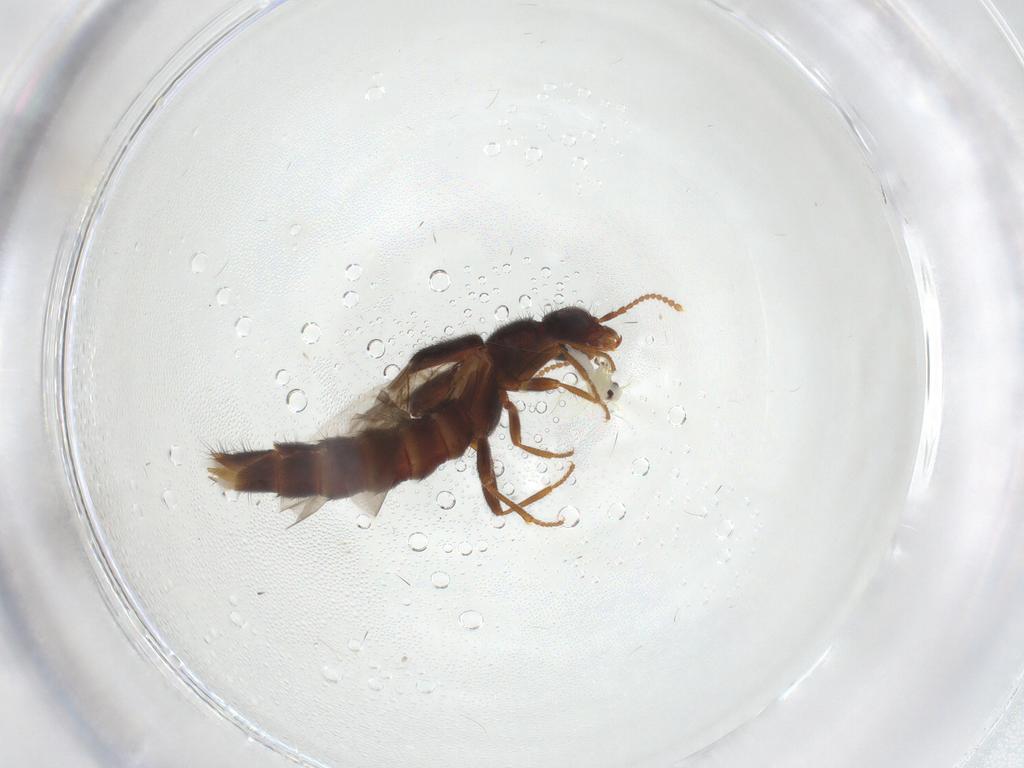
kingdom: Animalia
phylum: Arthropoda
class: Insecta
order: Coleoptera
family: Staphylinidae
